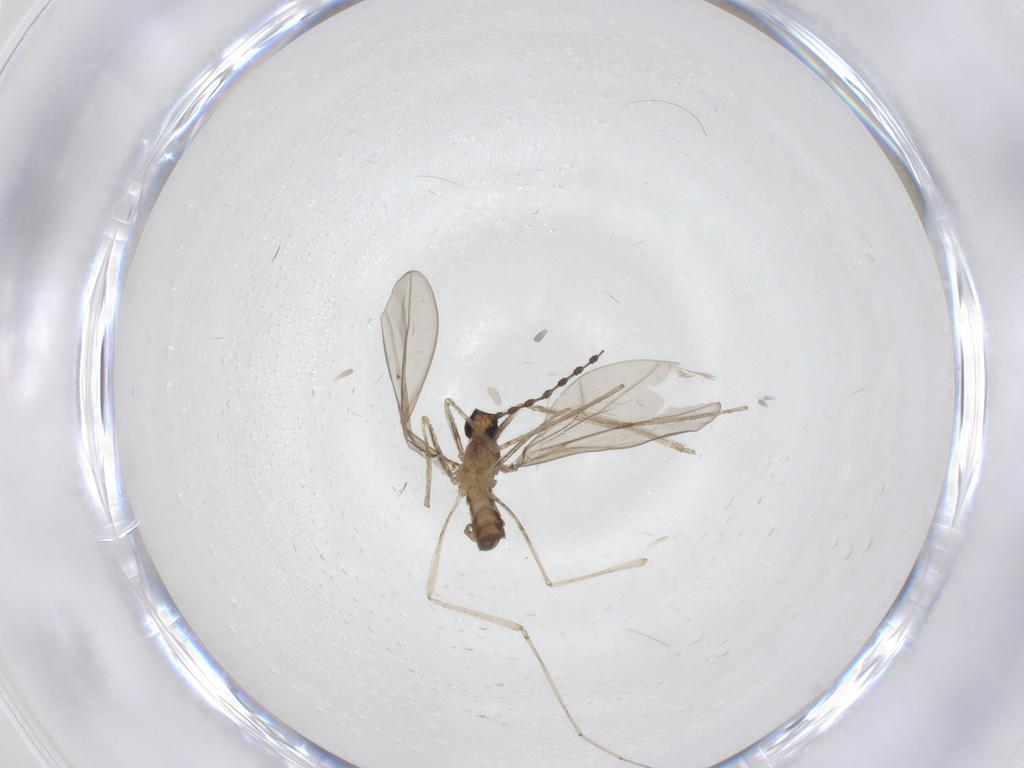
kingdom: Animalia
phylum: Arthropoda
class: Insecta
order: Diptera
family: Cecidomyiidae
